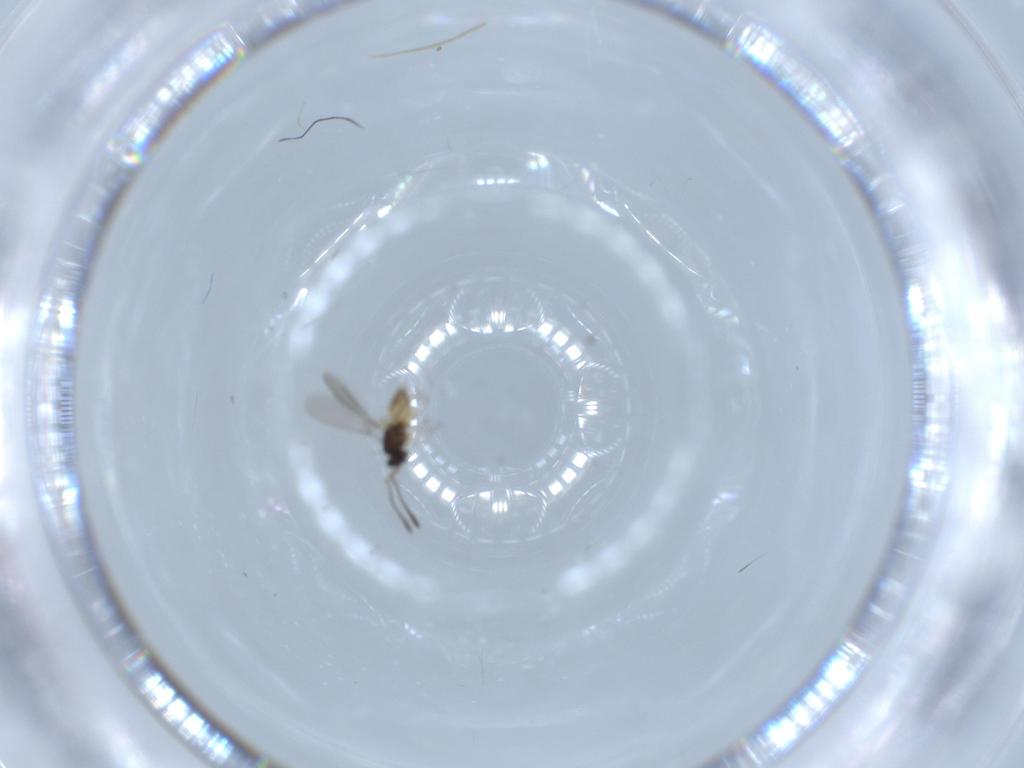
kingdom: Animalia
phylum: Arthropoda
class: Insecta
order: Hymenoptera
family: Mymaridae
